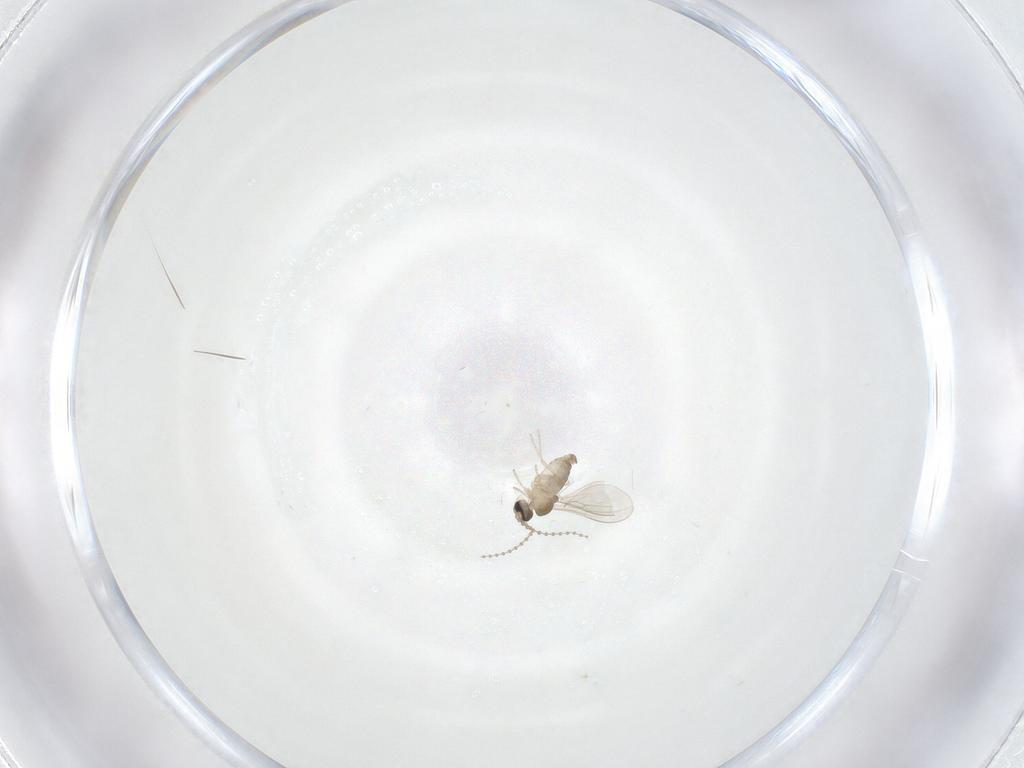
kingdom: Animalia
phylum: Arthropoda
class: Insecta
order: Diptera
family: Cecidomyiidae
